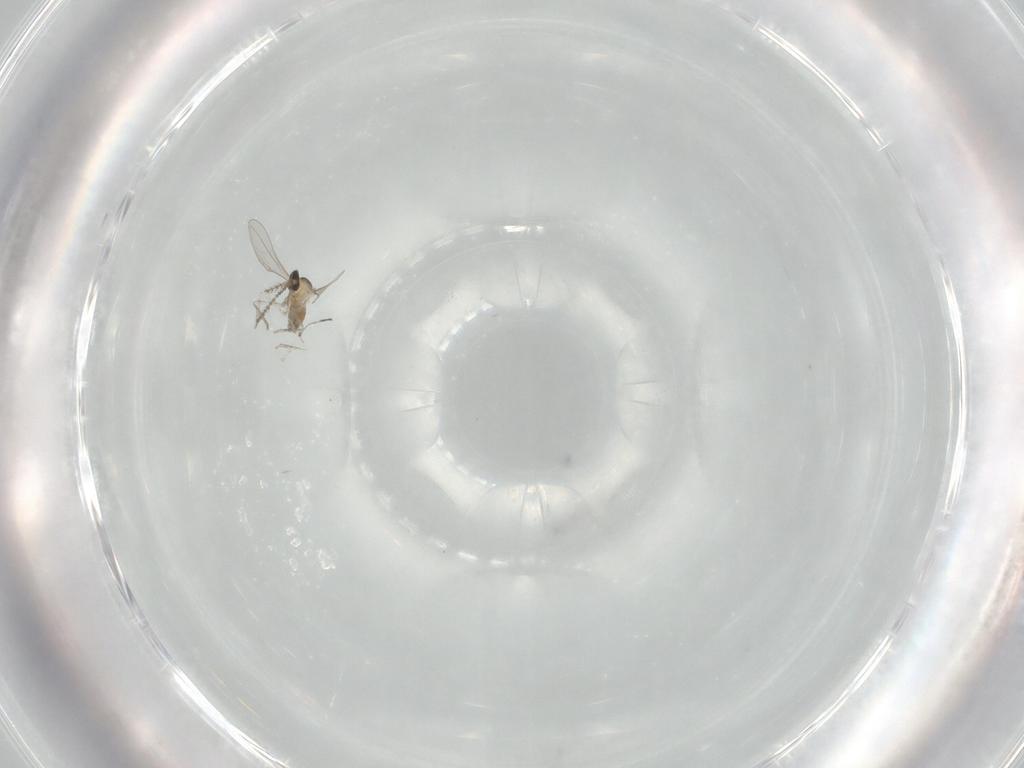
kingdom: Animalia
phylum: Arthropoda
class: Insecta
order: Diptera
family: Cecidomyiidae
